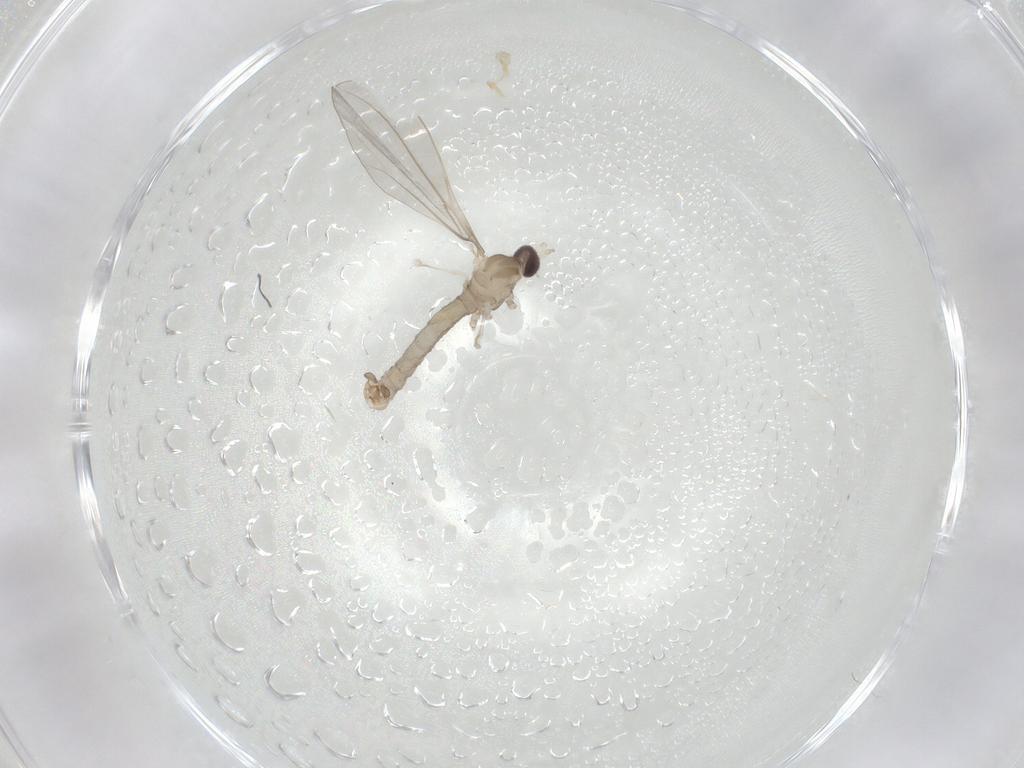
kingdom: Animalia
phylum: Arthropoda
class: Insecta
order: Diptera
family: Cecidomyiidae
